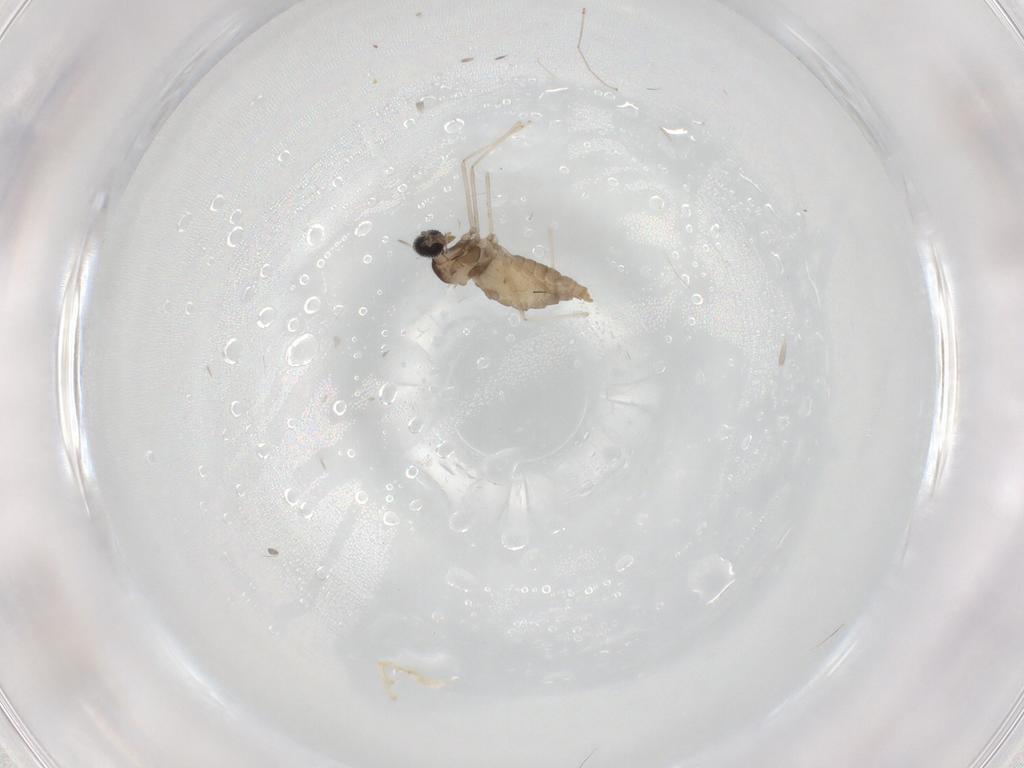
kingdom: Animalia
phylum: Arthropoda
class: Insecta
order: Diptera
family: Cecidomyiidae
